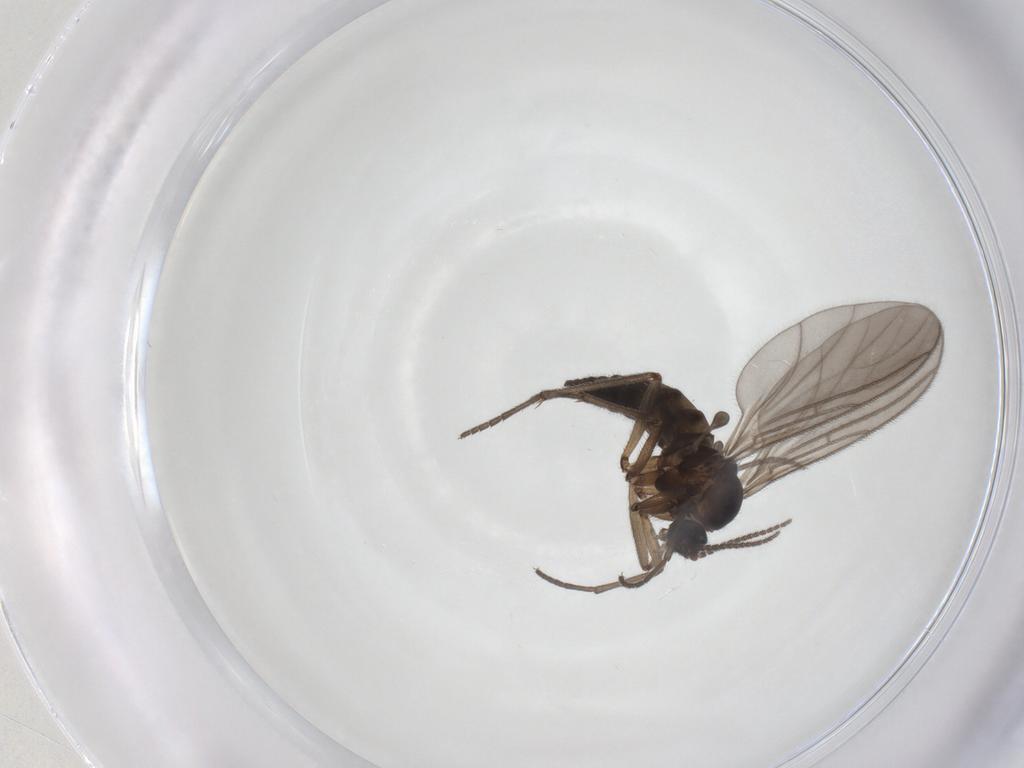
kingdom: Animalia
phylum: Arthropoda
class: Insecta
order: Diptera
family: Sciaridae
